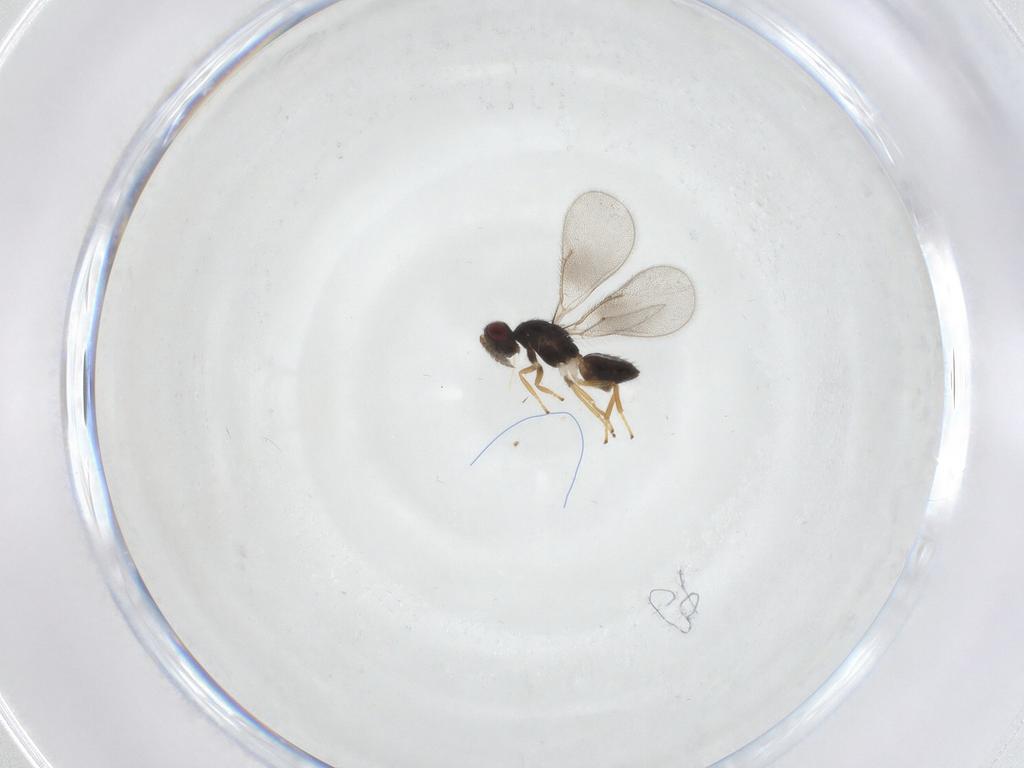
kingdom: Animalia
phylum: Arthropoda
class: Insecta
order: Hymenoptera
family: Eulophidae
